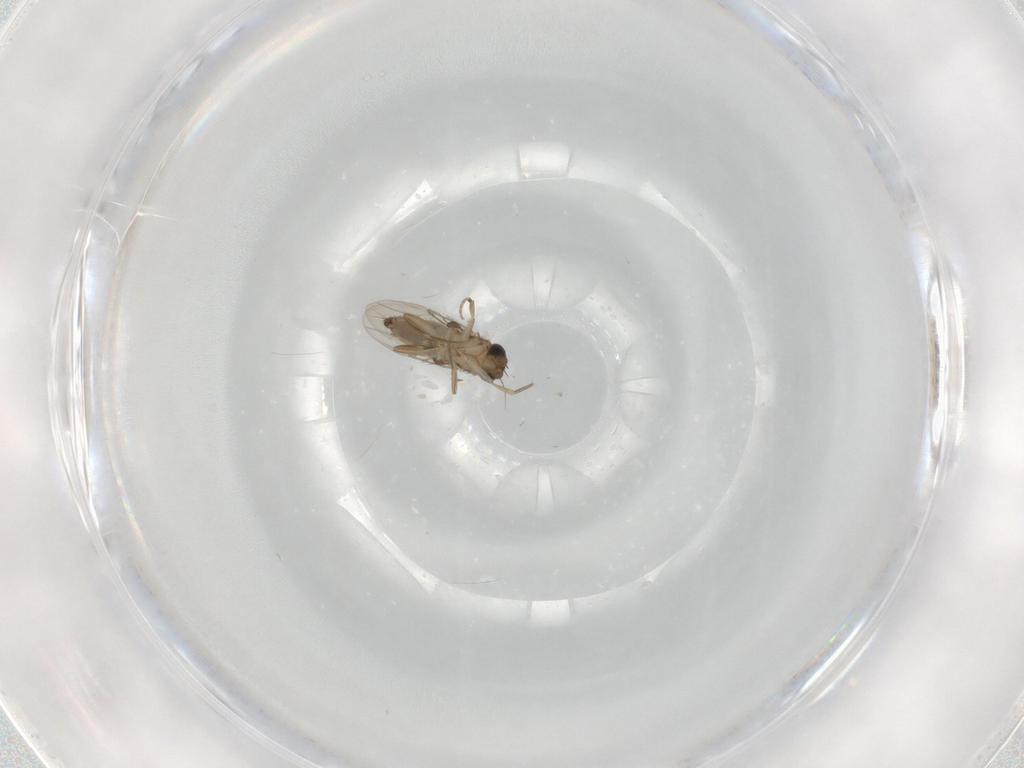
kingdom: Animalia
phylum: Arthropoda
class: Insecta
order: Diptera
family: Phoridae
